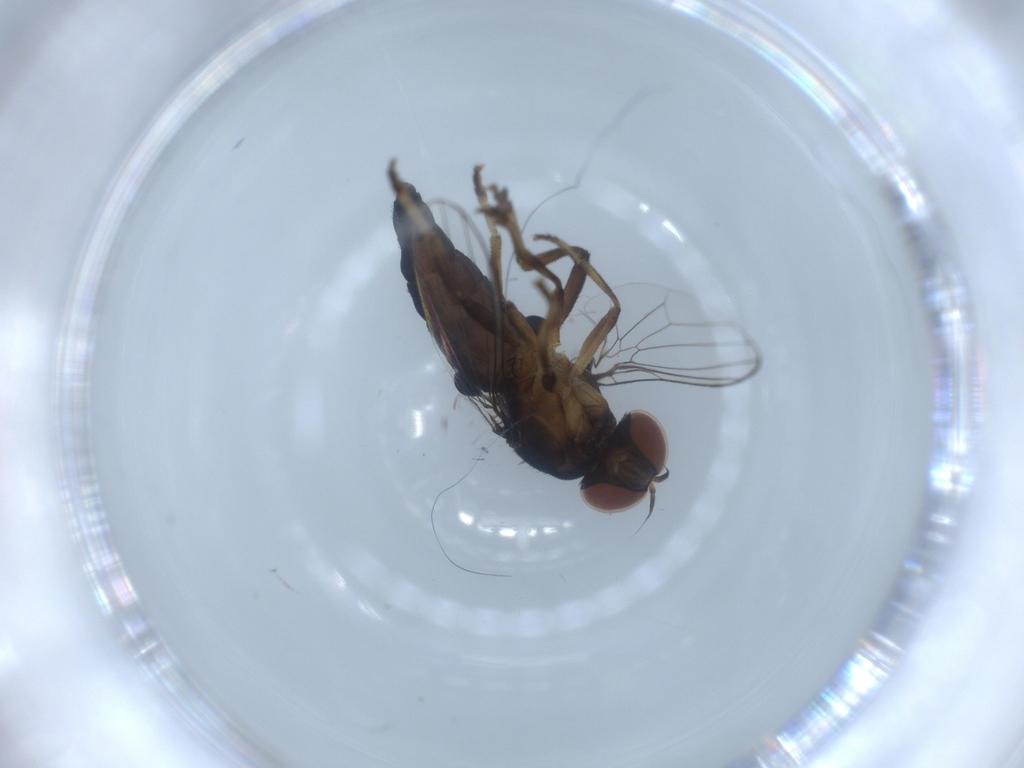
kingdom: Animalia
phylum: Arthropoda
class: Insecta
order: Diptera
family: Platypezidae
